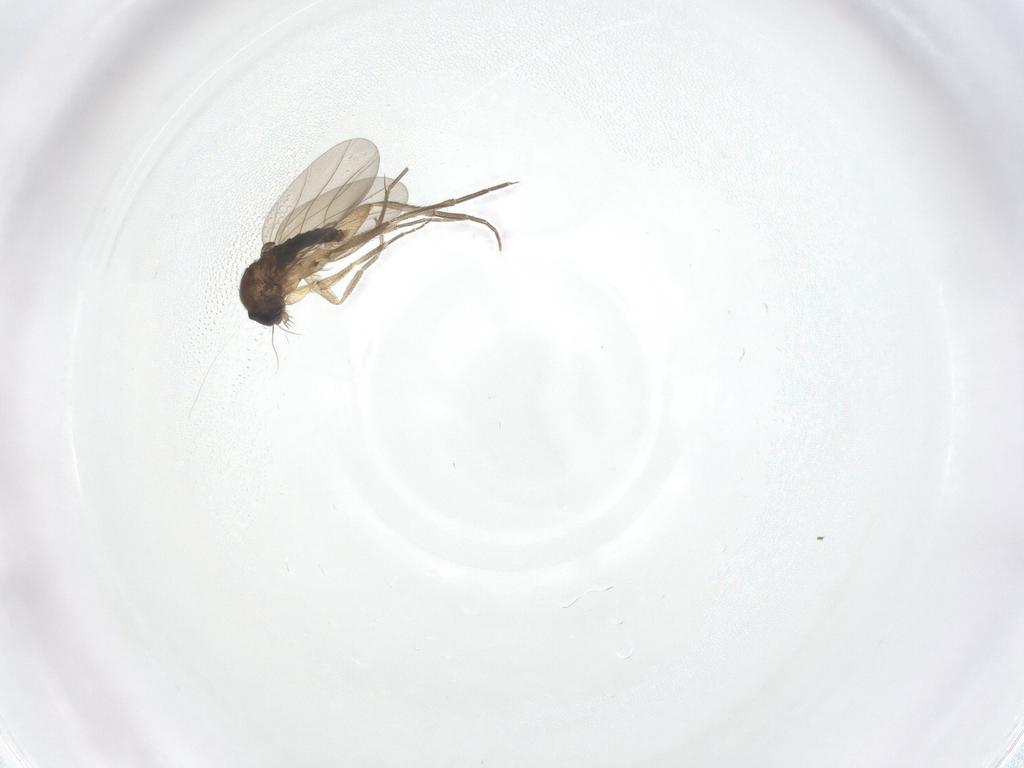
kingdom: Animalia
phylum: Arthropoda
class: Insecta
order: Diptera
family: Phoridae
